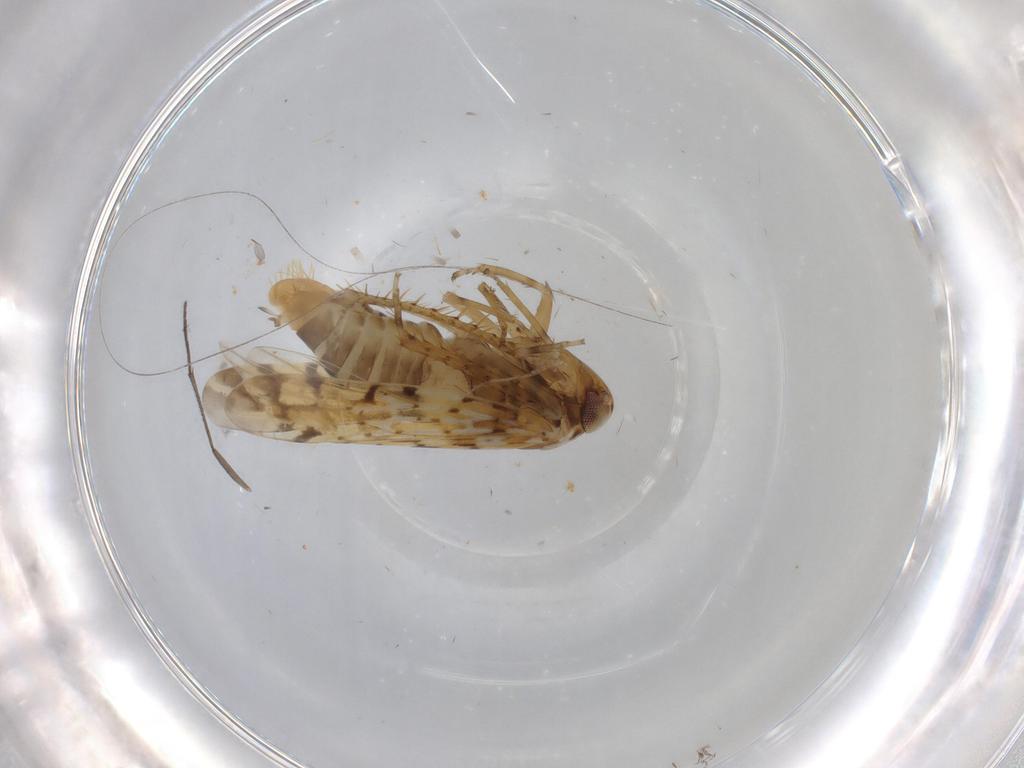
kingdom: Animalia
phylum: Arthropoda
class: Insecta
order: Hemiptera
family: Cicadellidae
